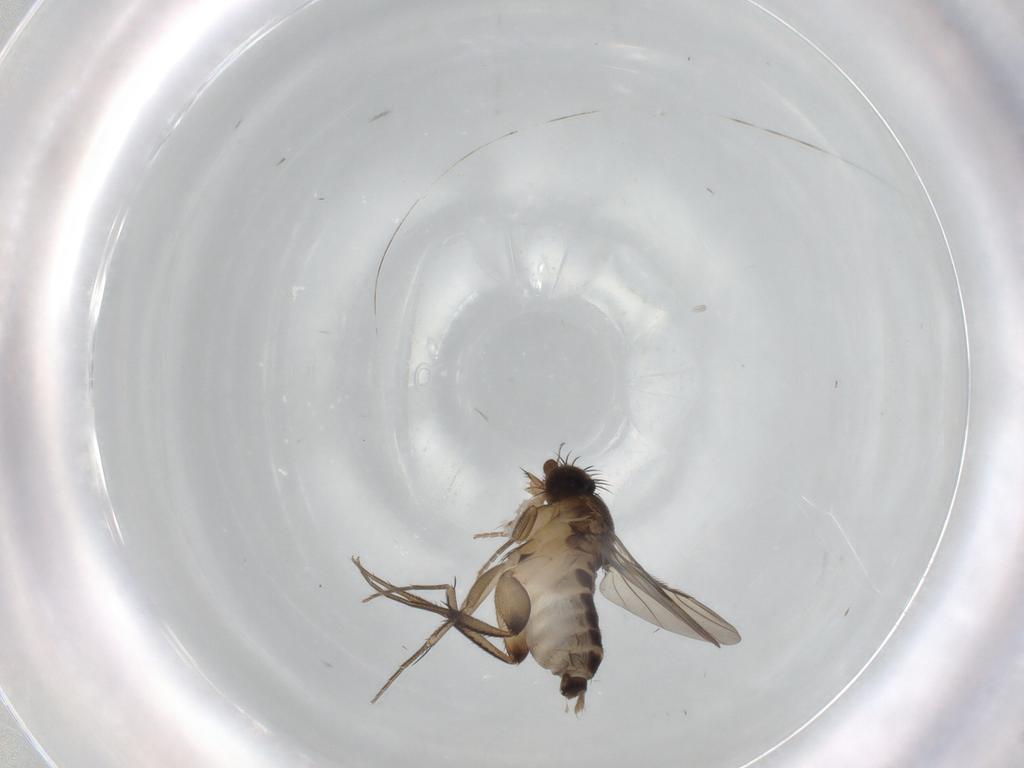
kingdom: Animalia
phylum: Arthropoda
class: Insecta
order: Diptera
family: Phoridae
